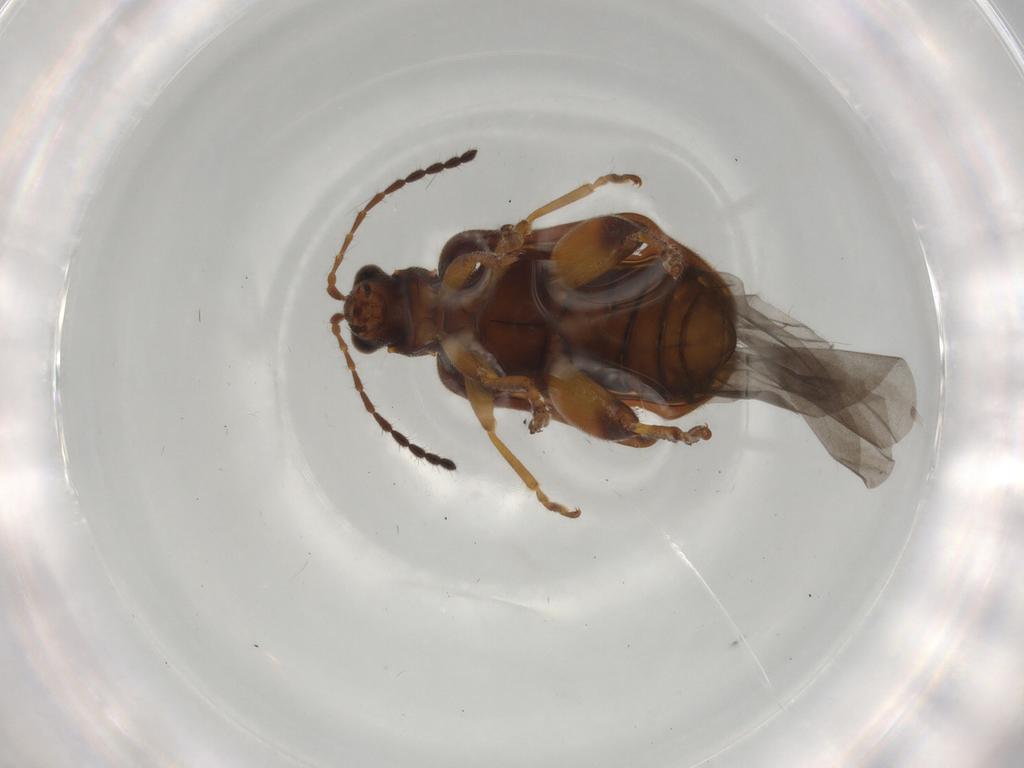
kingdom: Animalia
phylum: Arthropoda
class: Insecta
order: Coleoptera
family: Chrysomelidae
